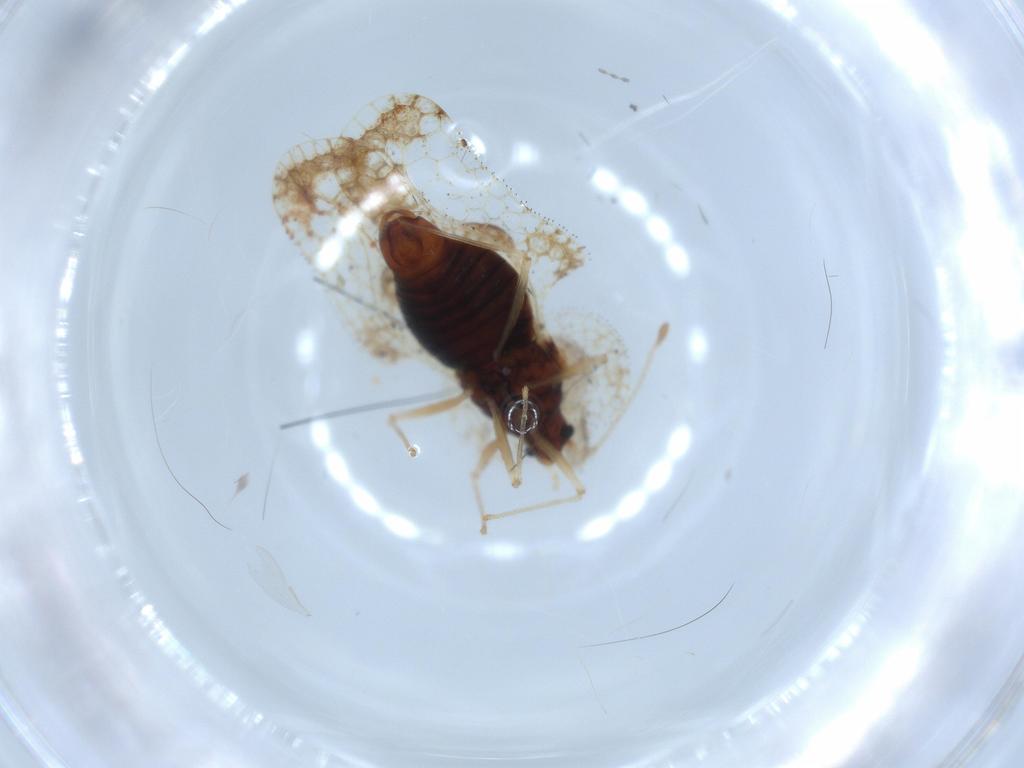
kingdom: Animalia
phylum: Arthropoda
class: Insecta
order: Hemiptera
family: Tingidae
